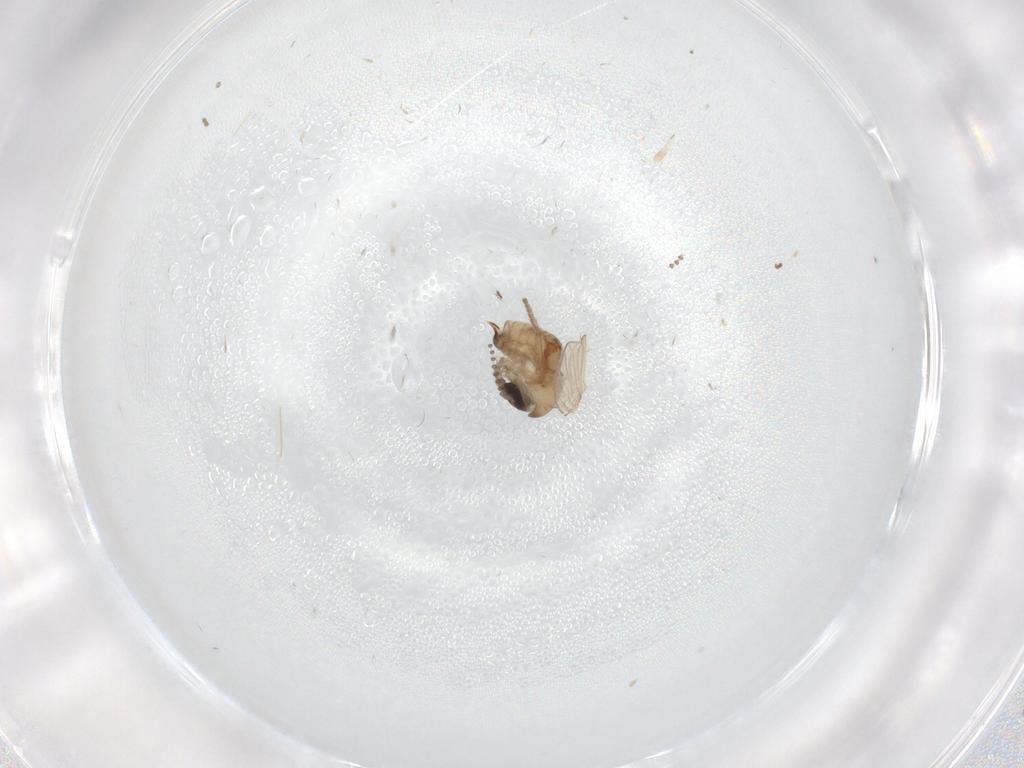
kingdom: Animalia
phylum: Arthropoda
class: Insecta
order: Diptera
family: Psychodidae
